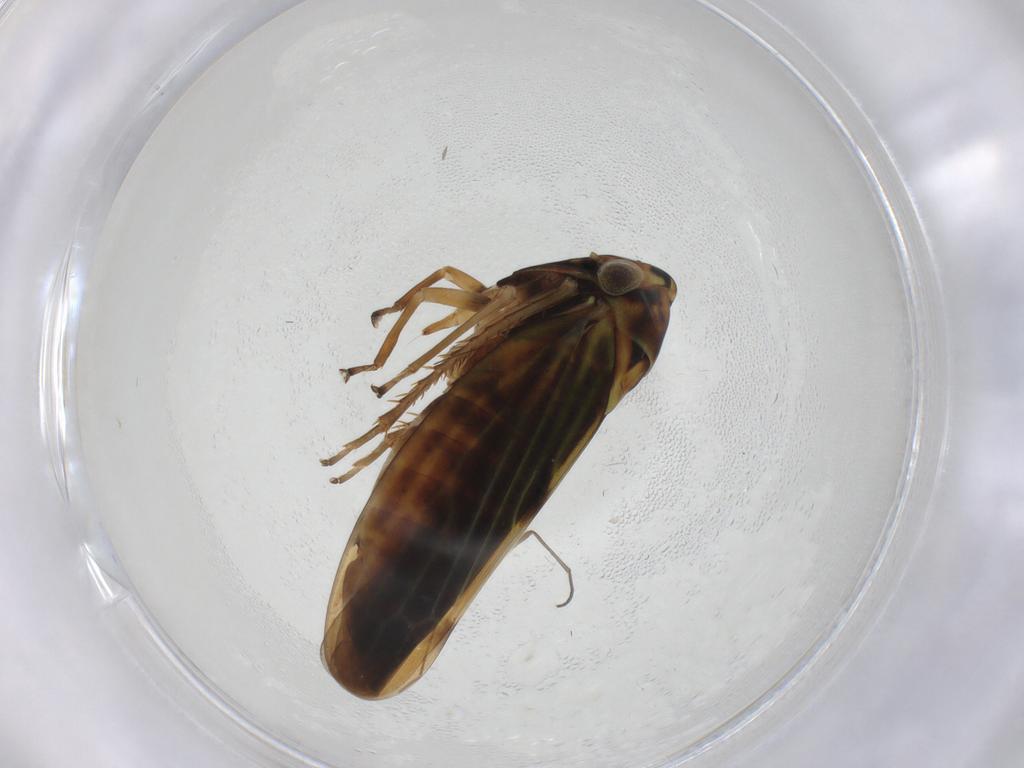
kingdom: Animalia
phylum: Arthropoda
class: Insecta
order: Hemiptera
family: Cicadellidae
